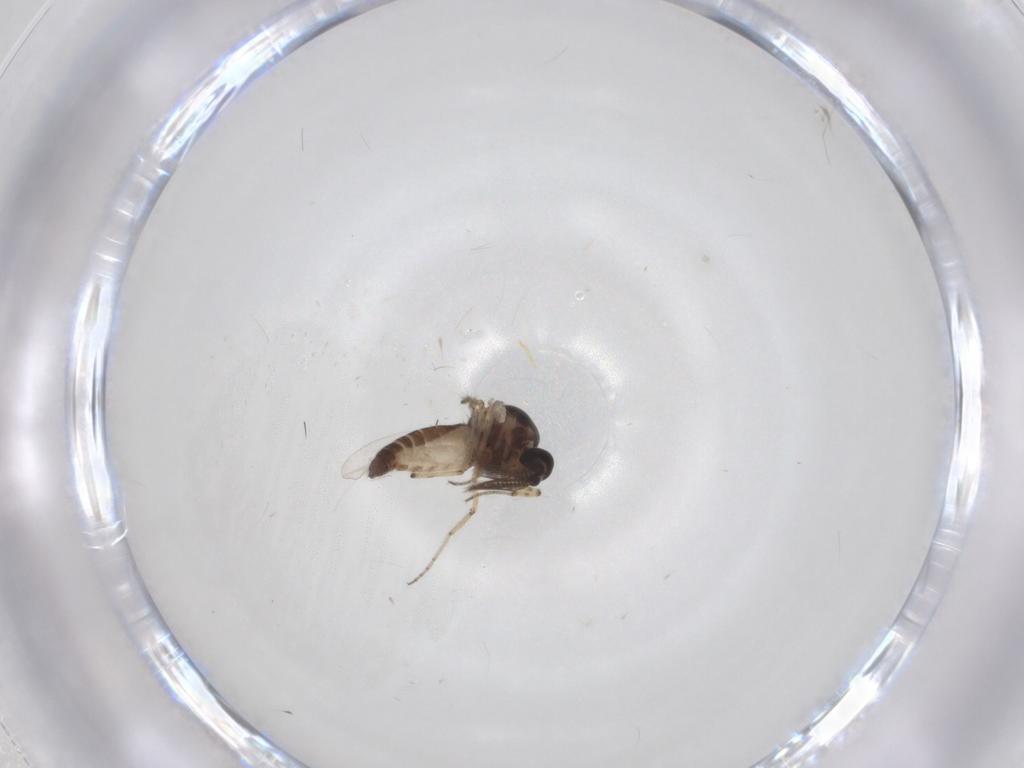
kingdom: Animalia
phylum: Arthropoda
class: Insecta
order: Diptera
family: Ceratopogonidae
